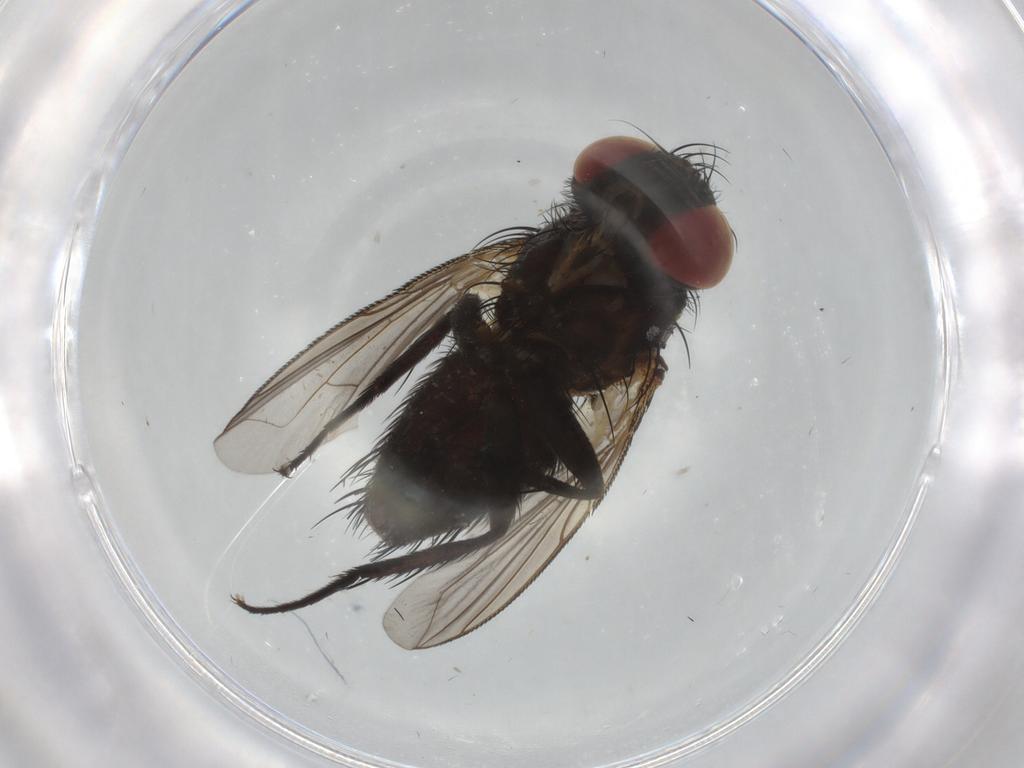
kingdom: Animalia
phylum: Arthropoda
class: Insecta
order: Diptera
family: Tachinidae
